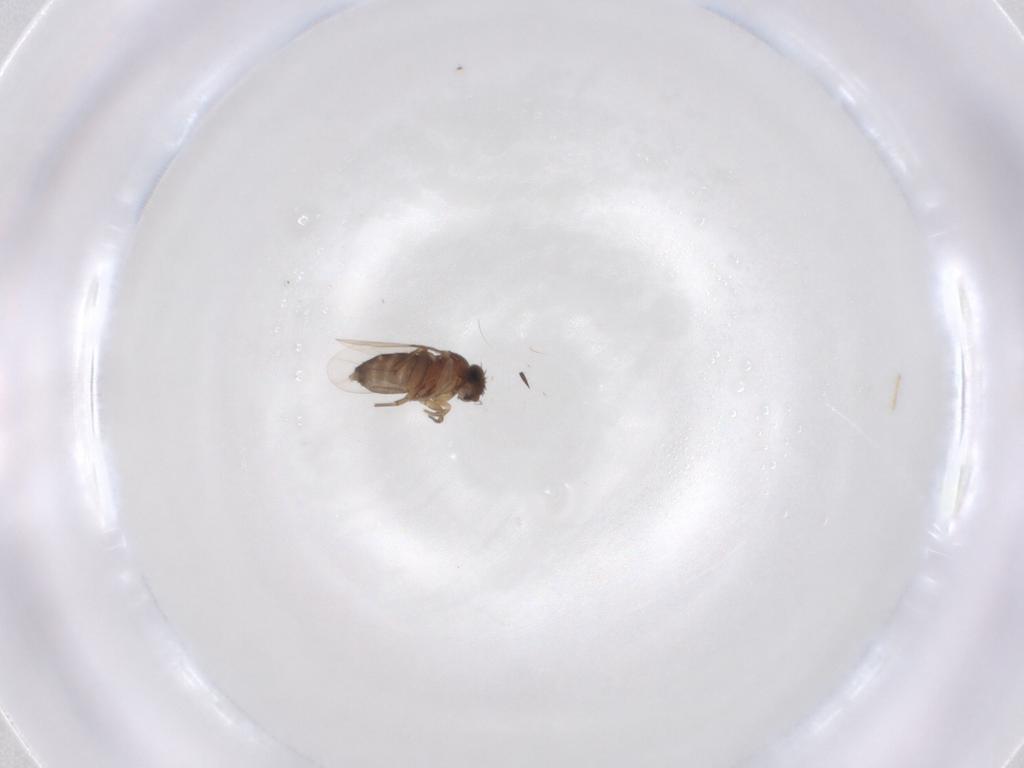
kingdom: Animalia
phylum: Arthropoda
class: Insecta
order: Diptera
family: Phoridae
